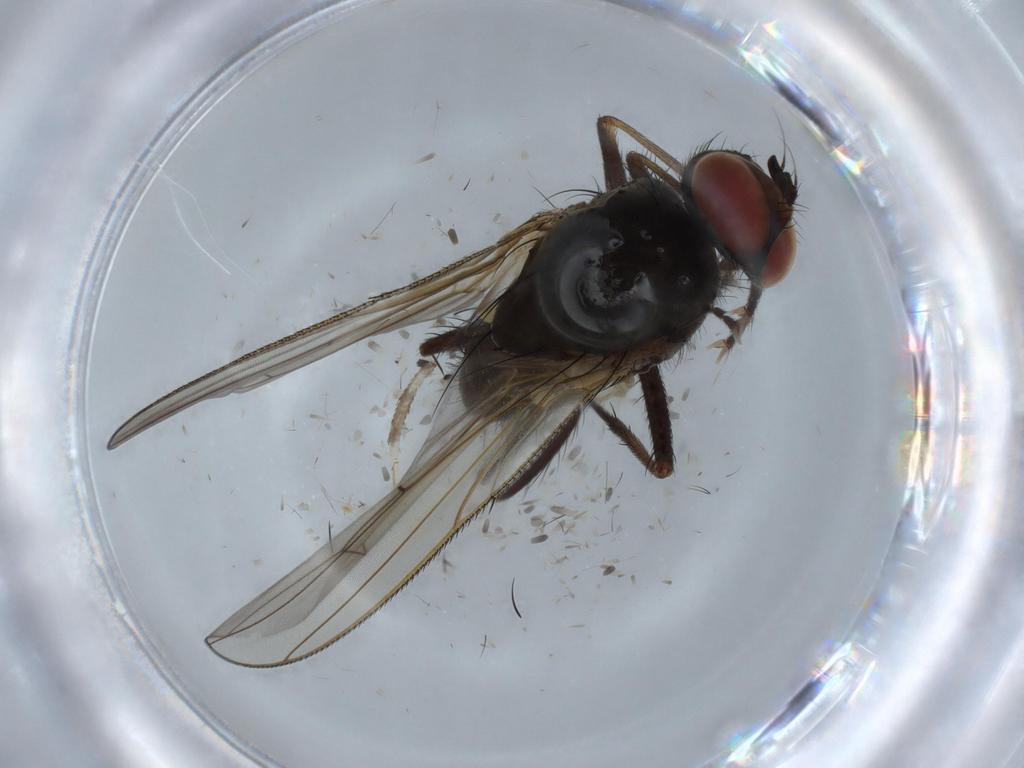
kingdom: Animalia
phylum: Arthropoda
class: Insecta
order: Diptera
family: Anthomyiidae
